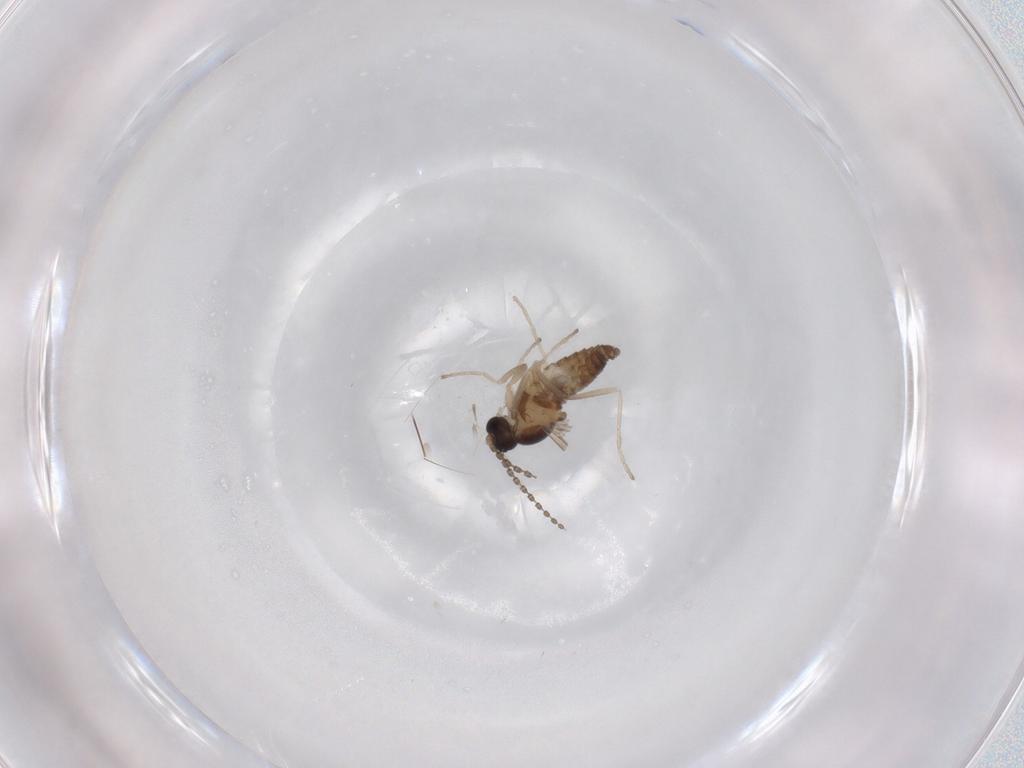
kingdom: Animalia
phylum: Arthropoda
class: Insecta
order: Diptera
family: Cecidomyiidae
